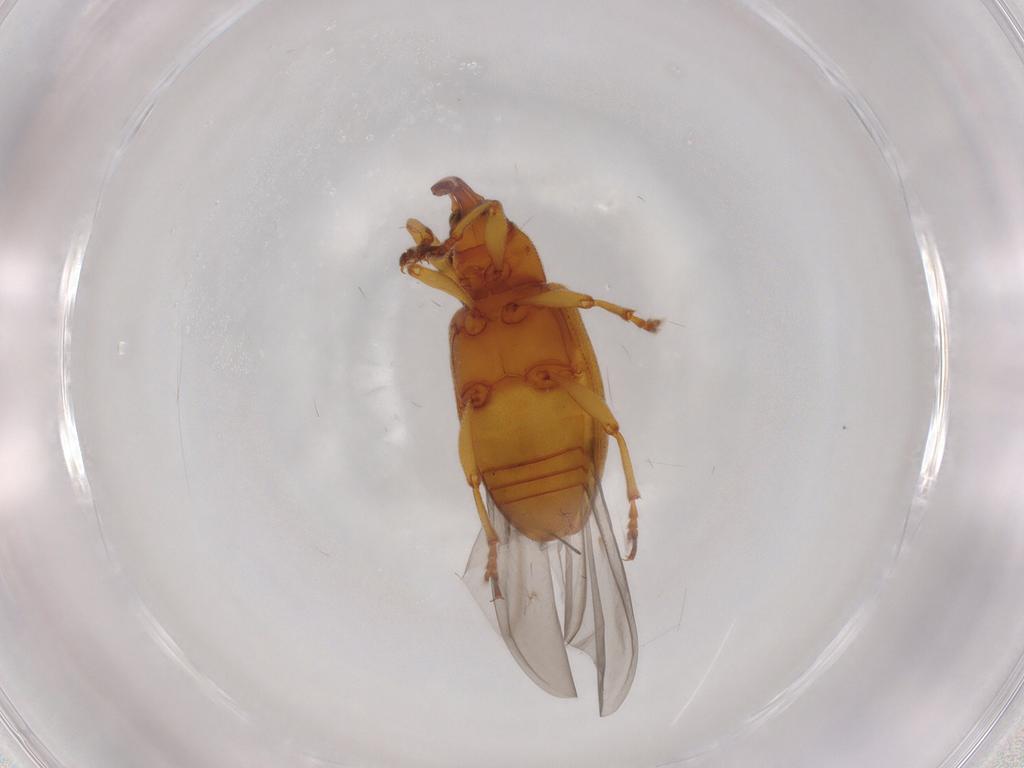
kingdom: Animalia
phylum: Arthropoda
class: Insecta
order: Coleoptera
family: Curculionidae
